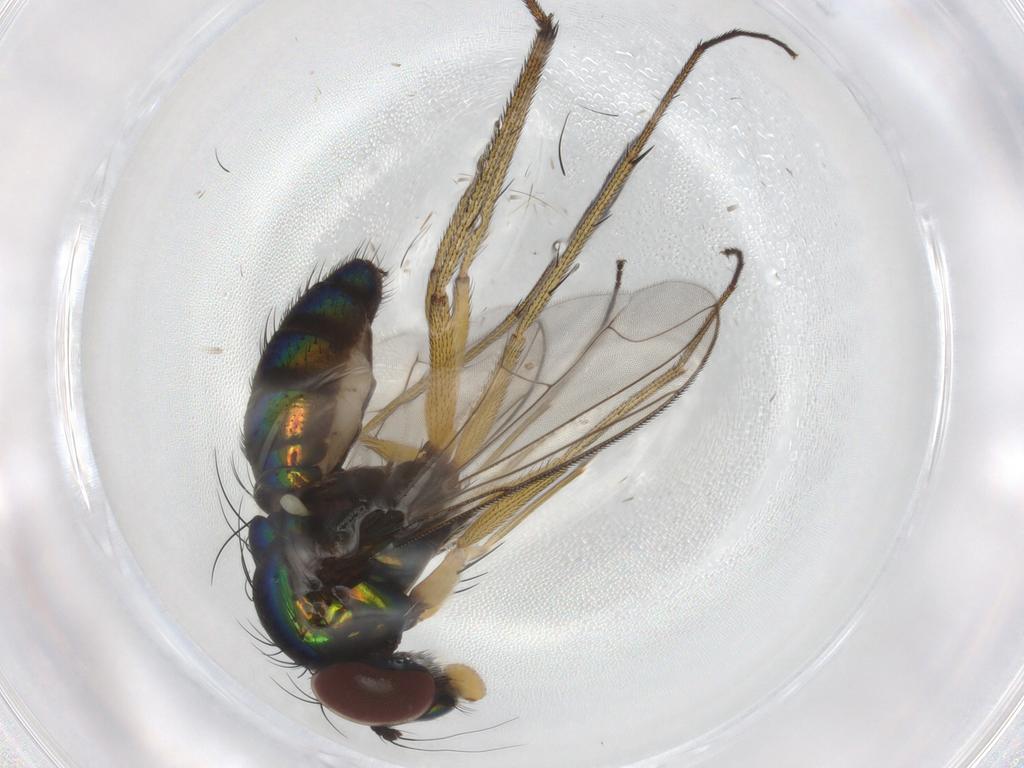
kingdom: Animalia
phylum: Arthropoda
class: Insecta
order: Diptera
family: Dolichopodidae
